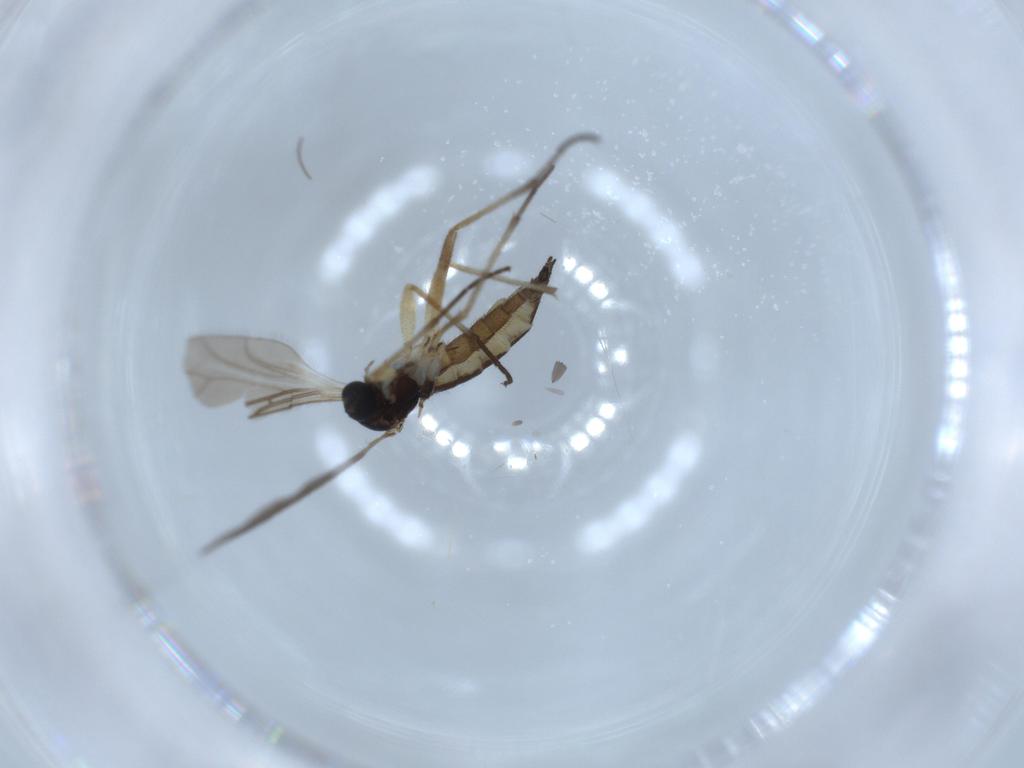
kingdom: Animalia
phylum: Arthropoda
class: Insecta
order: Diptera
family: Sciaridae
